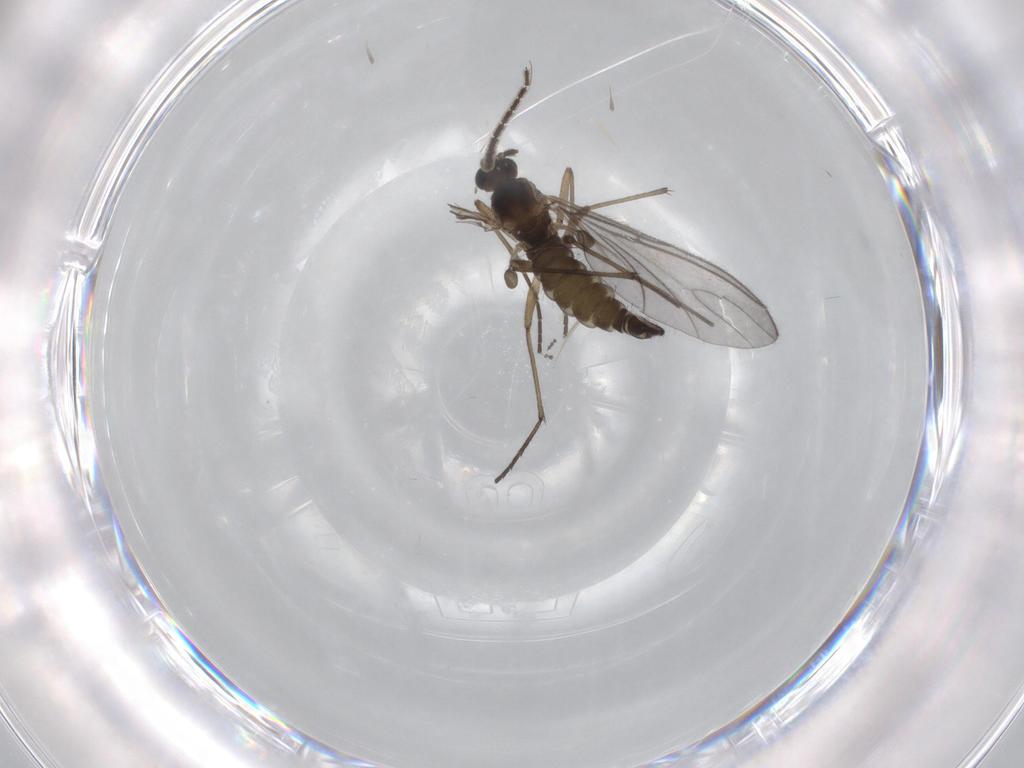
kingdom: Animalia
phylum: Arthropoda
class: Insecta
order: Diptera
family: Sciaridae
